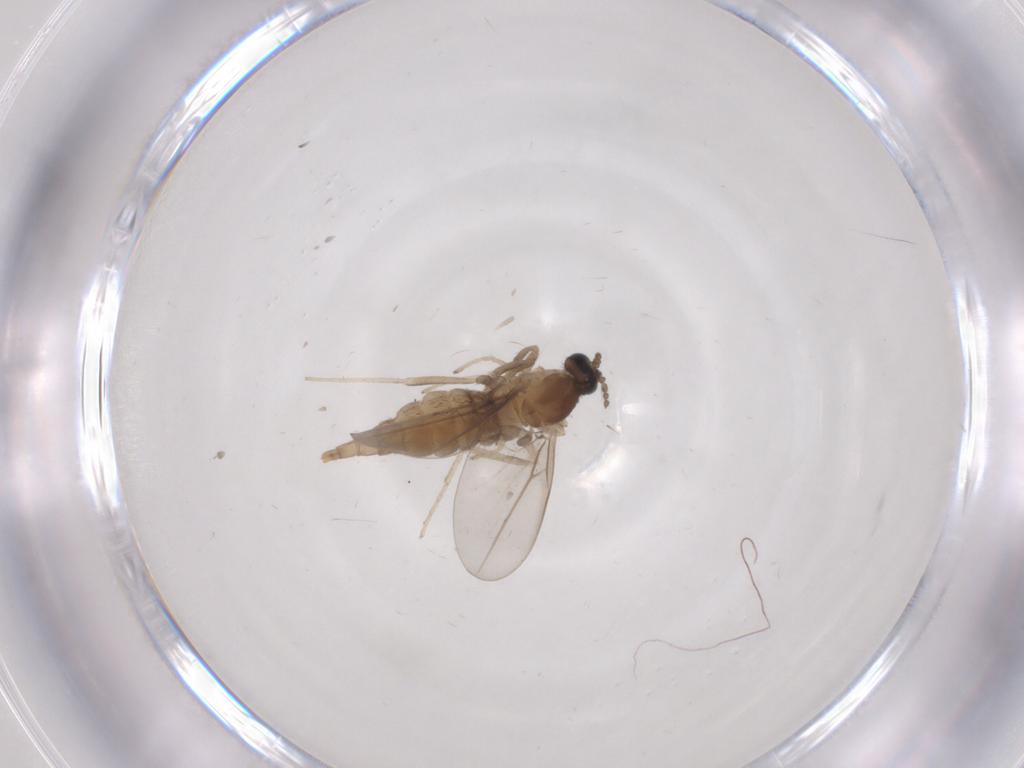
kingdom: Animalia
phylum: Arthropoda
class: Insecta
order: Diptera
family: Cecidomyiidae
